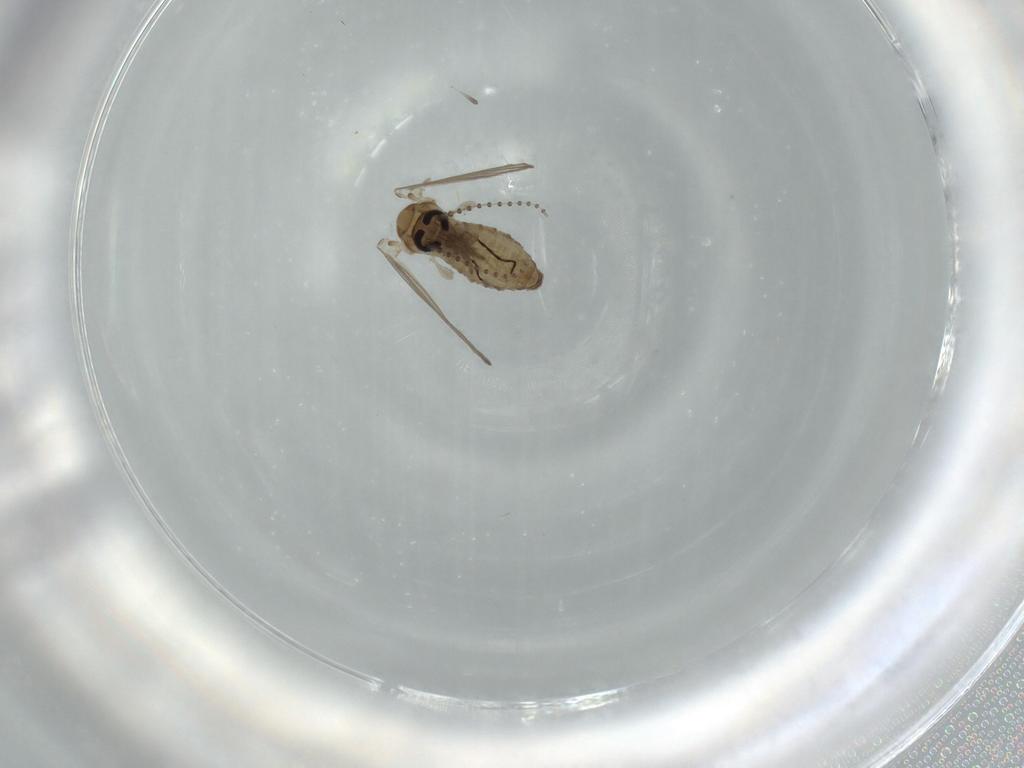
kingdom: Animalia
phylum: Arthropoda
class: Insecta
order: Diptera
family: Psychodidae
